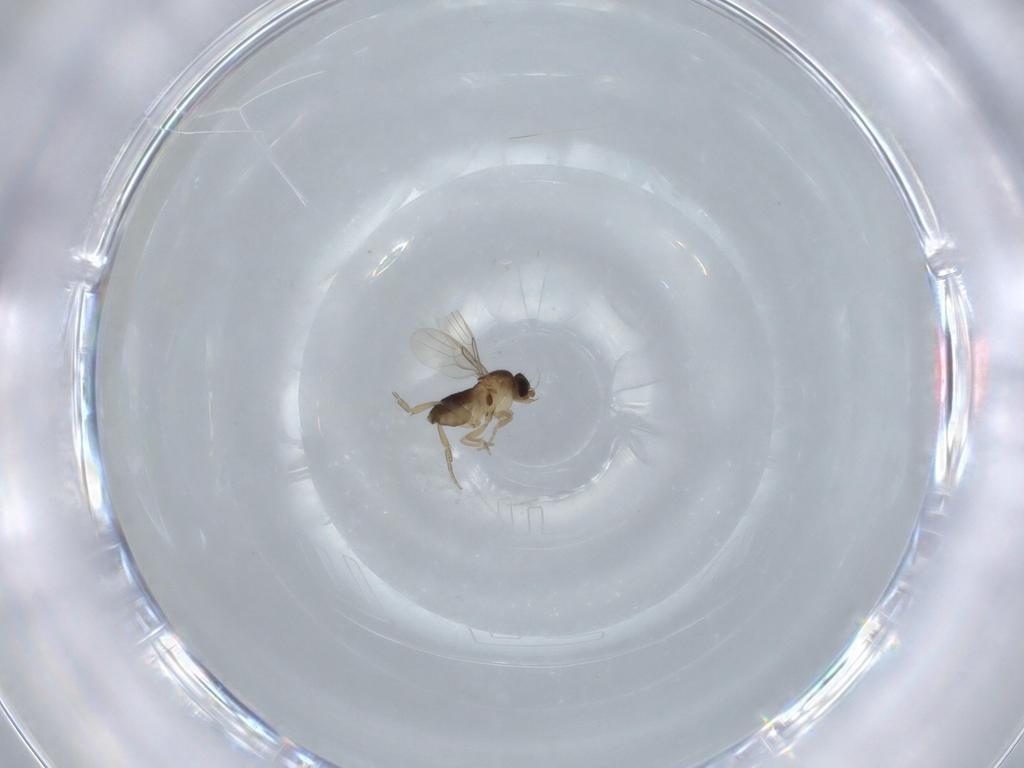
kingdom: Animalia
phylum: Arthropoda
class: Insecta
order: Diptera
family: Phoridae
